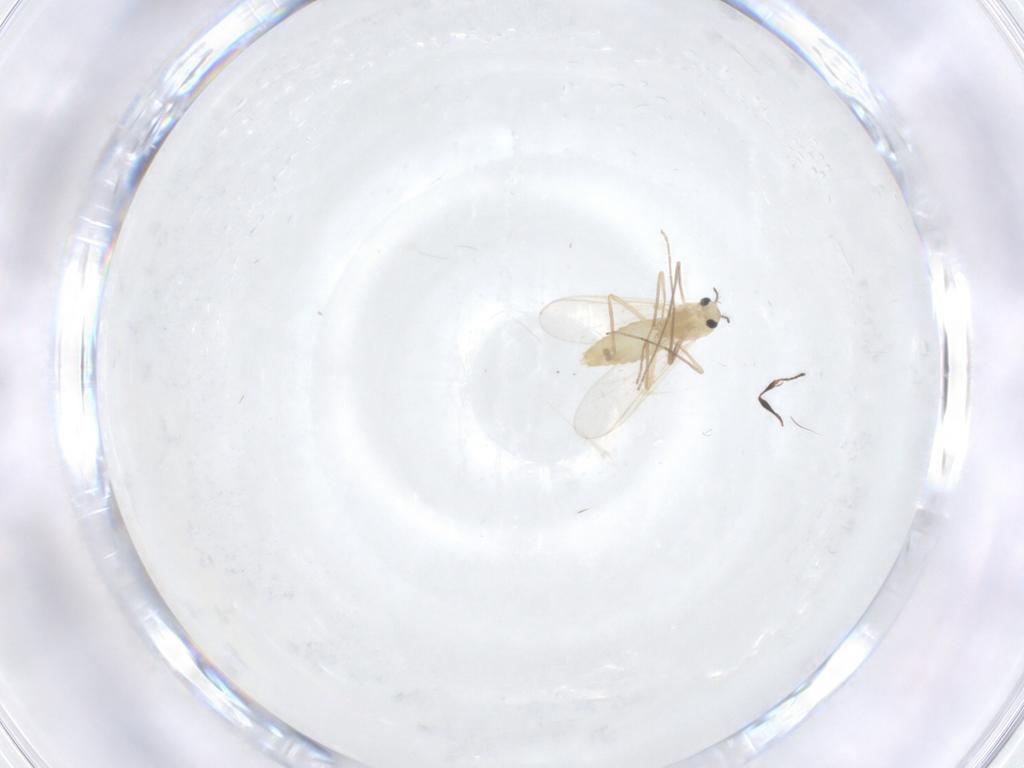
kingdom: Animalia
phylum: Arthropoda
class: Insecta
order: Diptera
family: Chironomidae
